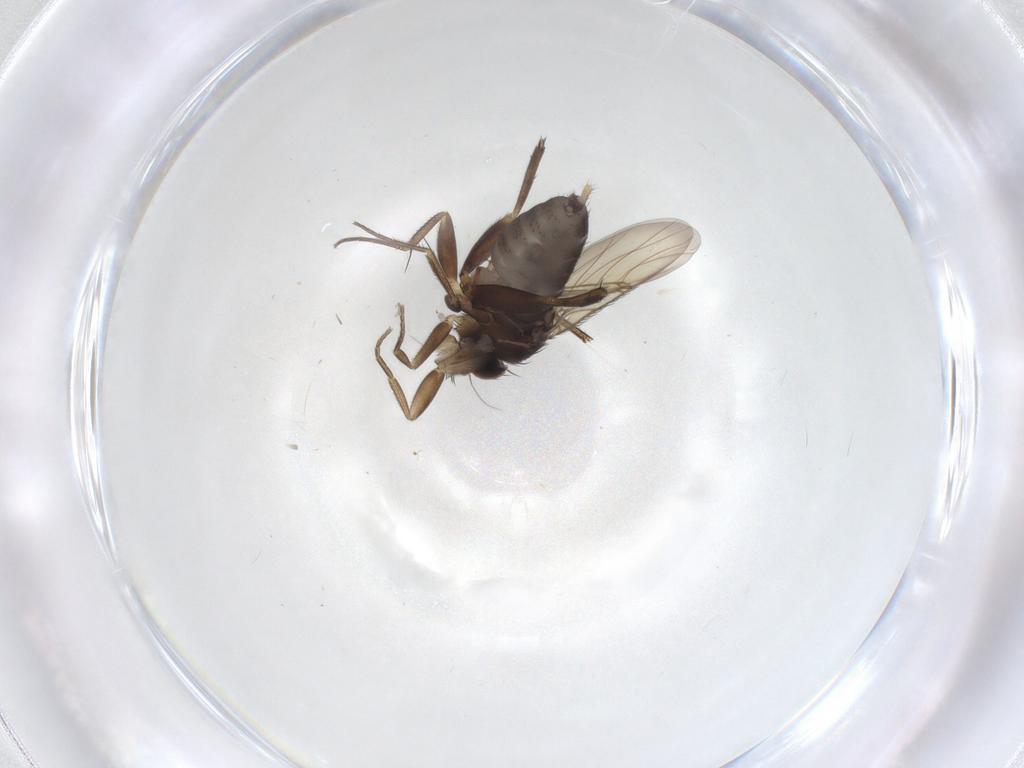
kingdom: Animalia
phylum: Arthropoda
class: Insecta
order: Diptera
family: Phoridae
